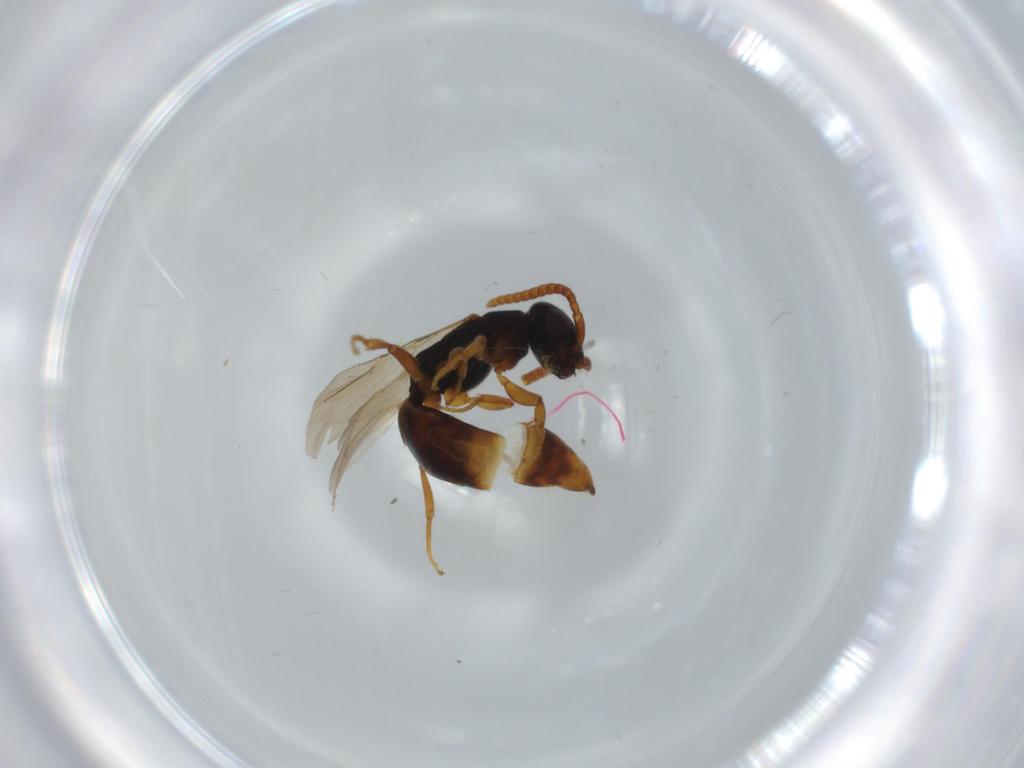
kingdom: Animalia
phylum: Arthropoda
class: Insecta
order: Hymenoptera
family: Bethylidae
